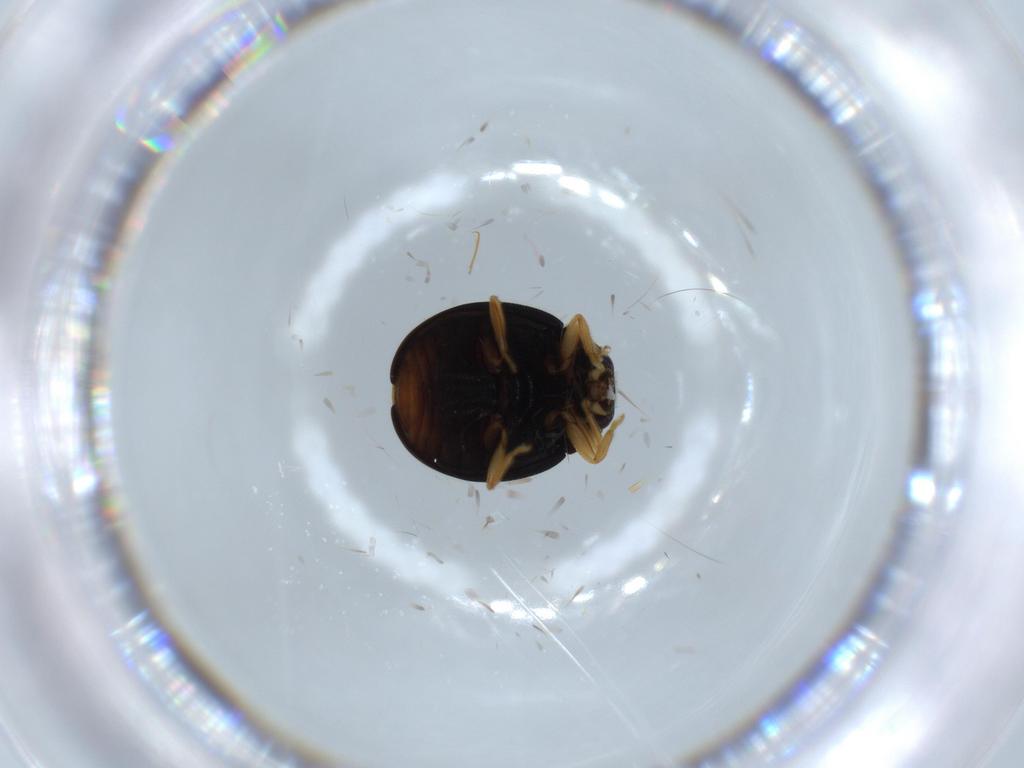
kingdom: Animalia
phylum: Arthropoda
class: Insecta
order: Coleoptera
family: Coccinellidae
